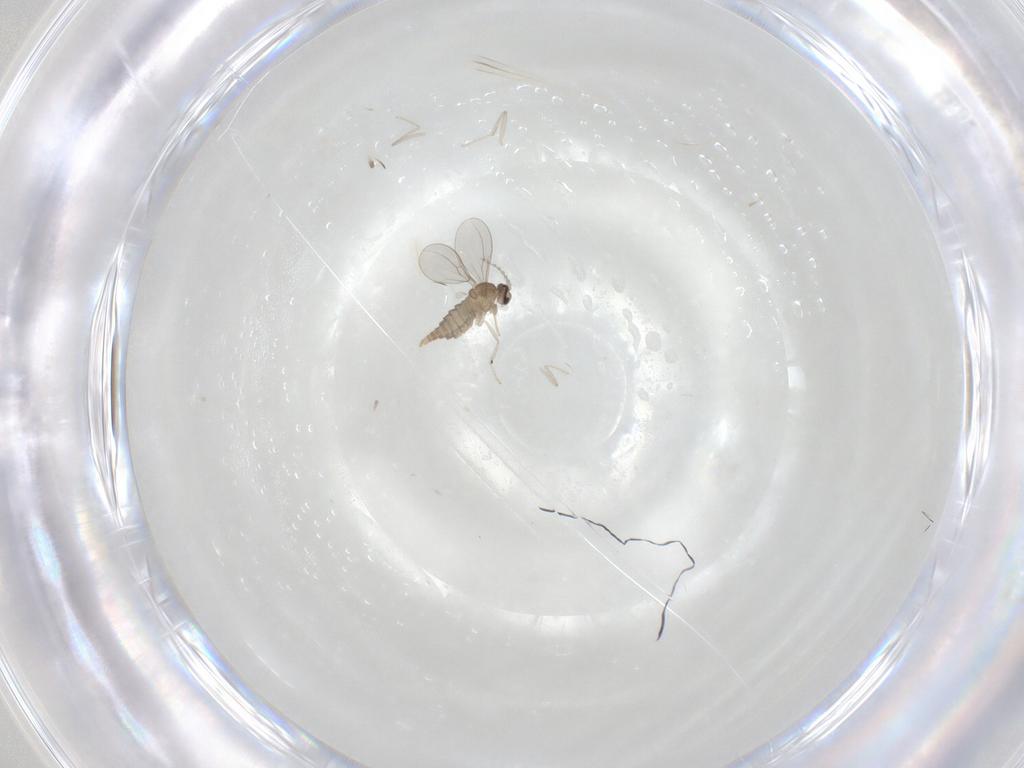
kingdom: Animalia
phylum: Arthropoda
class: Insecta
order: Diptera
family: Cecidomyiidae
